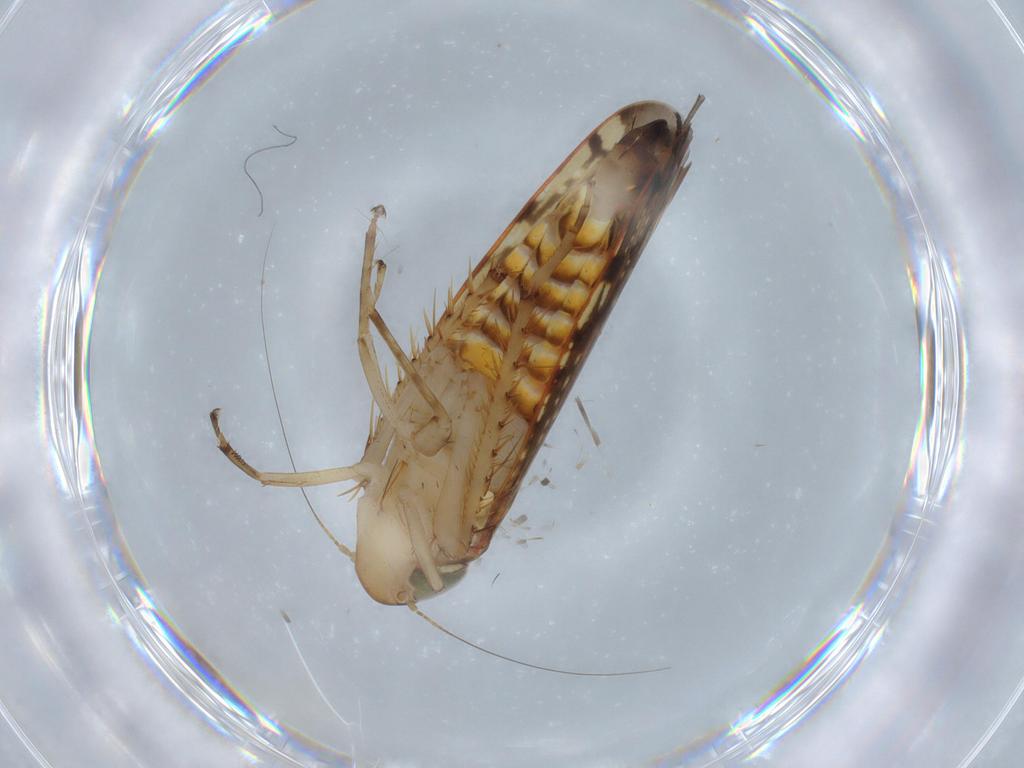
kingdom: Animalia
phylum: Arthropoda
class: Insecta
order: Hemiptera
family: Cicadellidae
